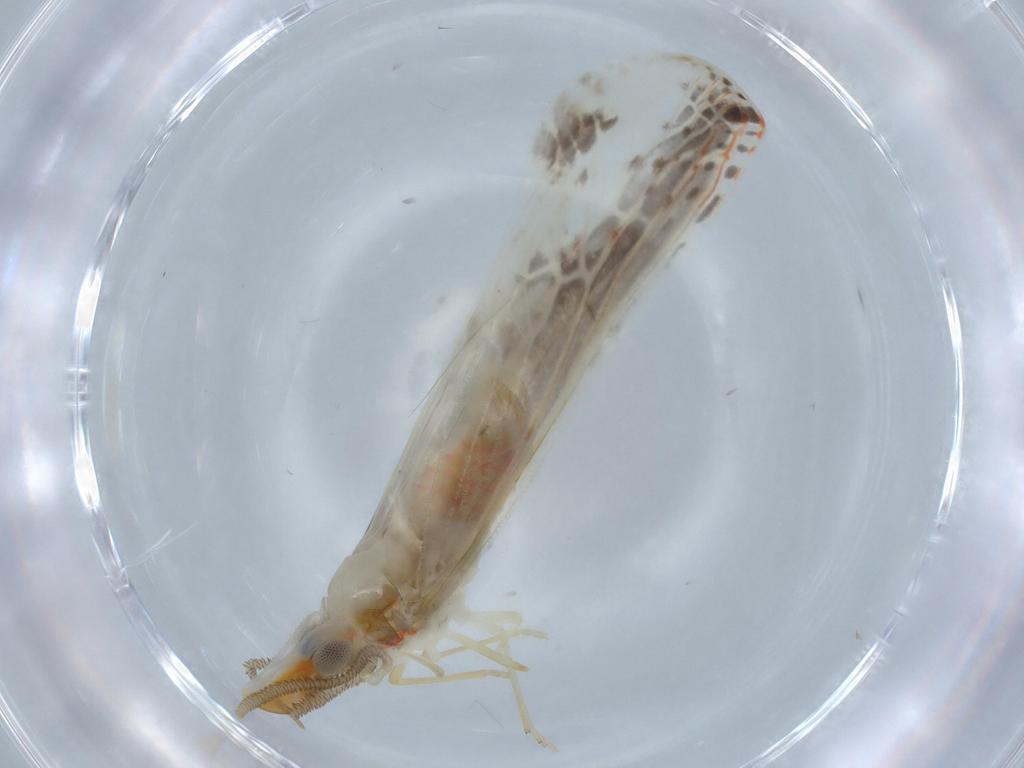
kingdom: Animalia
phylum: Arthropoda
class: Insecta
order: Hemiptera
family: Derbidae
